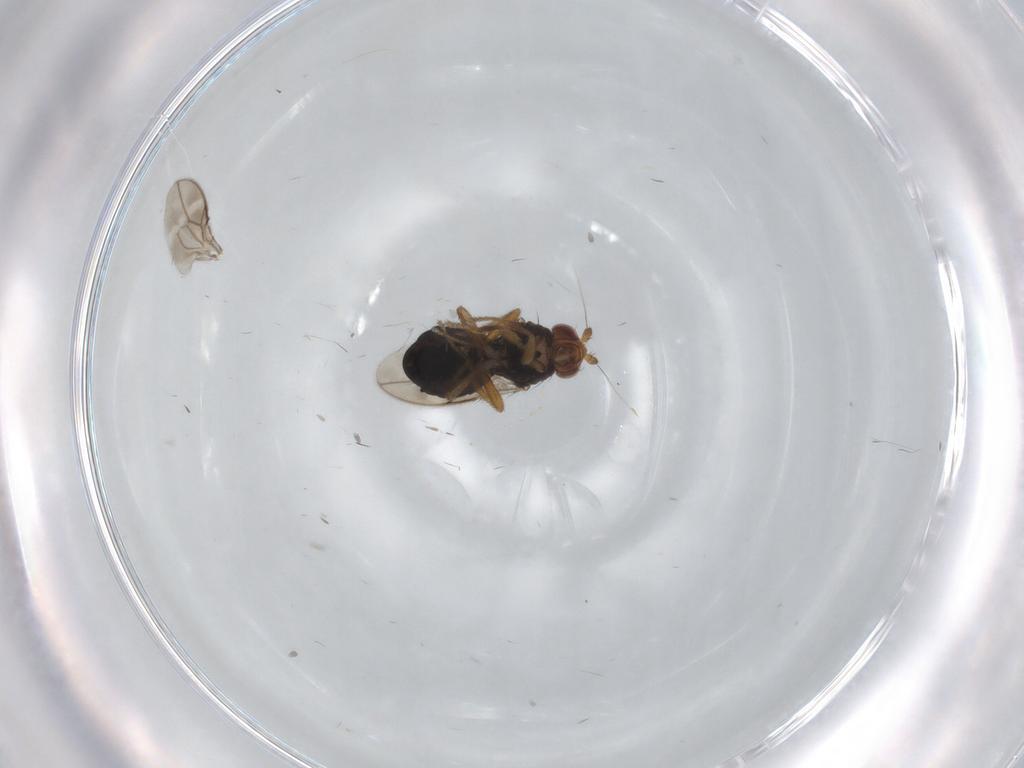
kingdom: Animalia
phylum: Arthropoda
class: Insecta
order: Diptera
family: Sphaeroceridae
